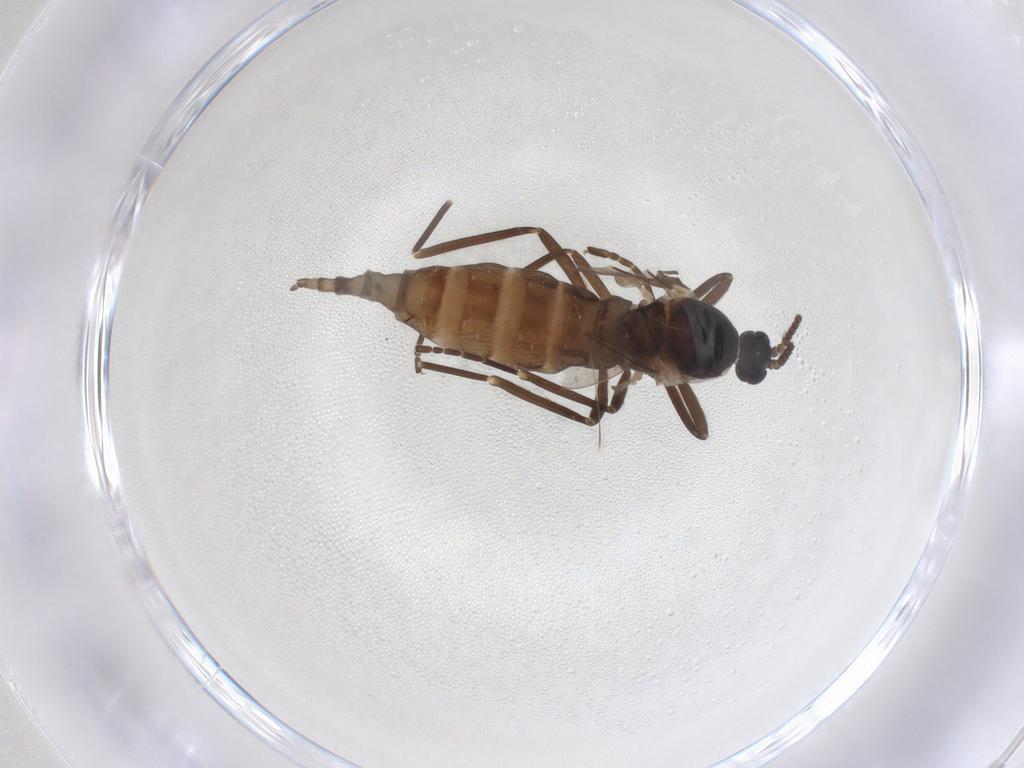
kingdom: Animalia
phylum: Arthropoda
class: Insecta
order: Diptera
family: Cecidomyiidae
